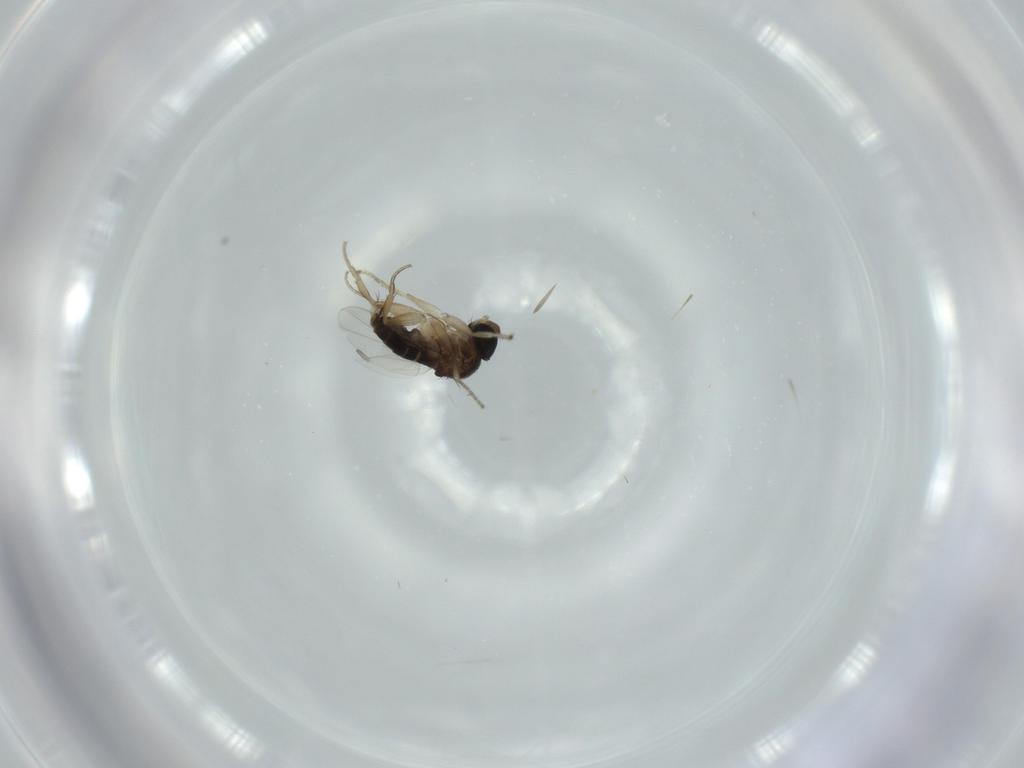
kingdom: Animalia
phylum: Arthropoda
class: Insecta
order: Diptera
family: Phoridae
